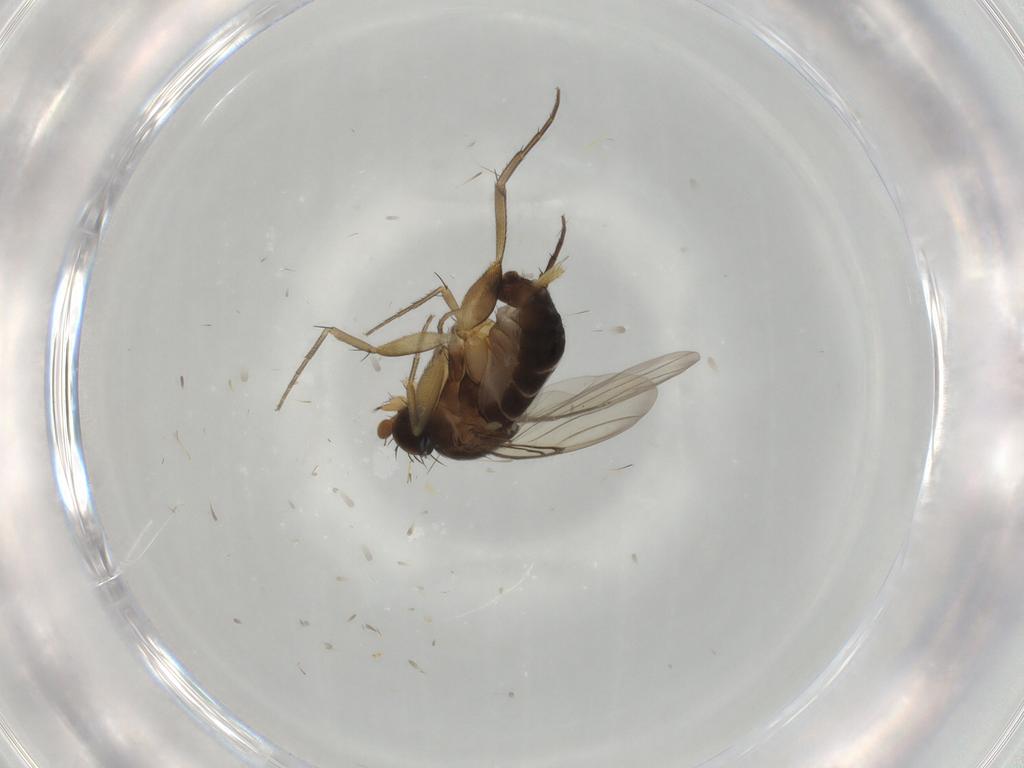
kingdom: Animalia
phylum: Arthropoda
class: Insecta
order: Diptera
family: Phoridae
